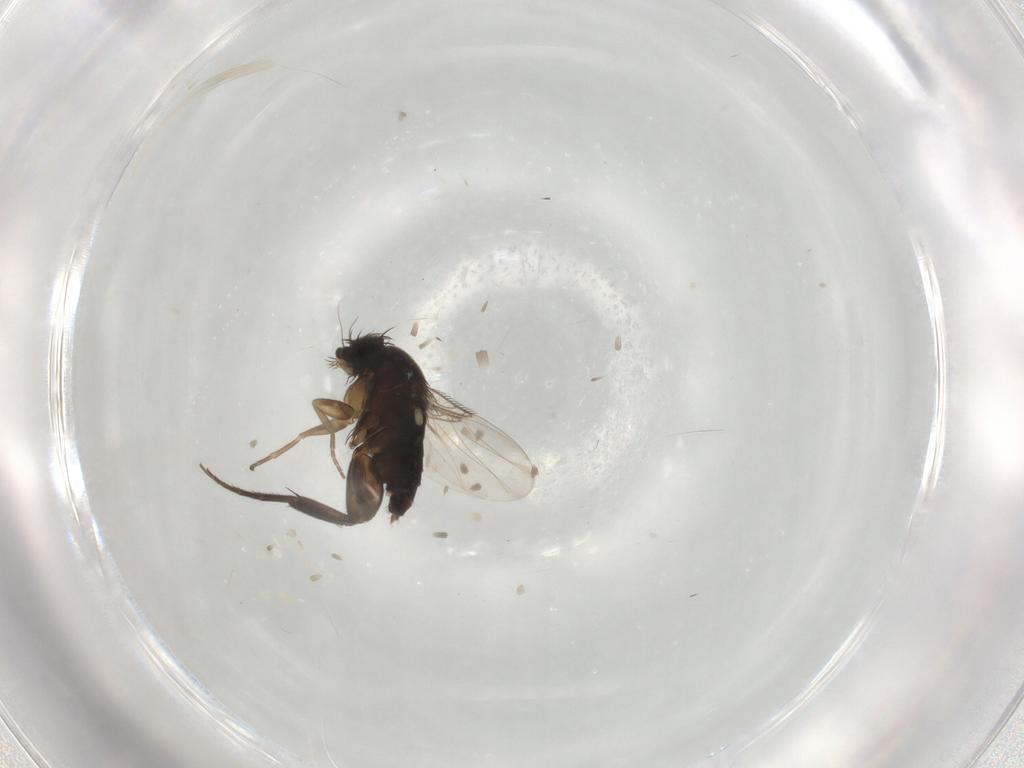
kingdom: Animalia
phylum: Arthropoda
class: Insecta
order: Diptera
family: Phoridae
